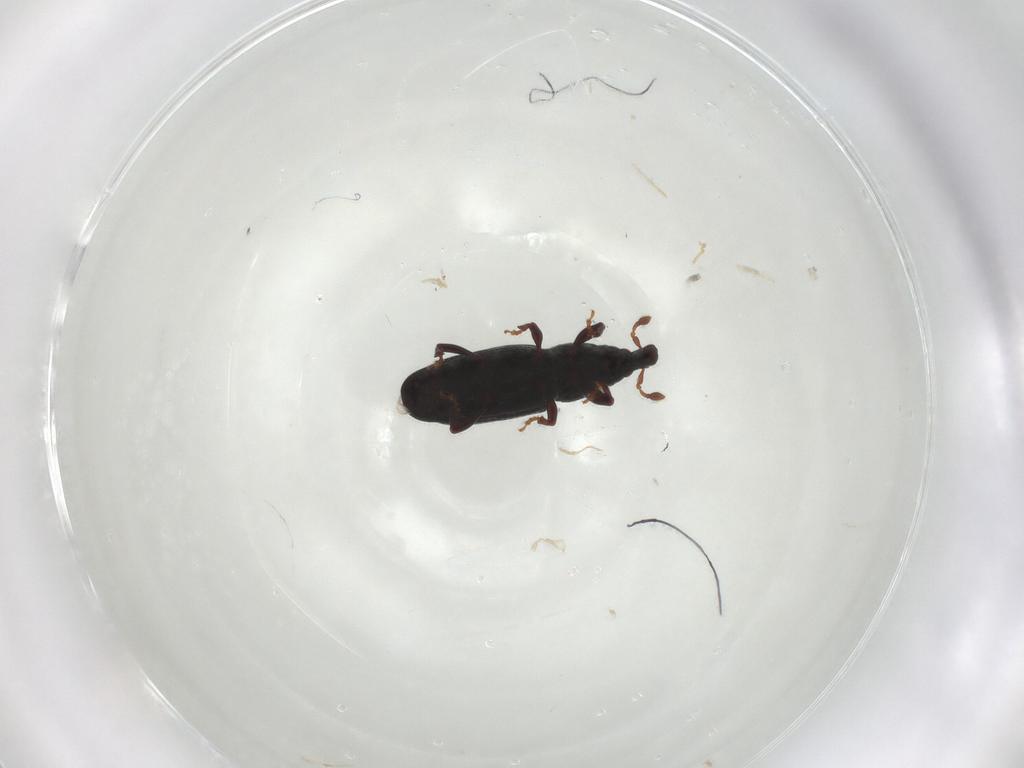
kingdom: Animalia
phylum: Arthropoda
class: Insecta
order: Coleoptera
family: Curculionidae
